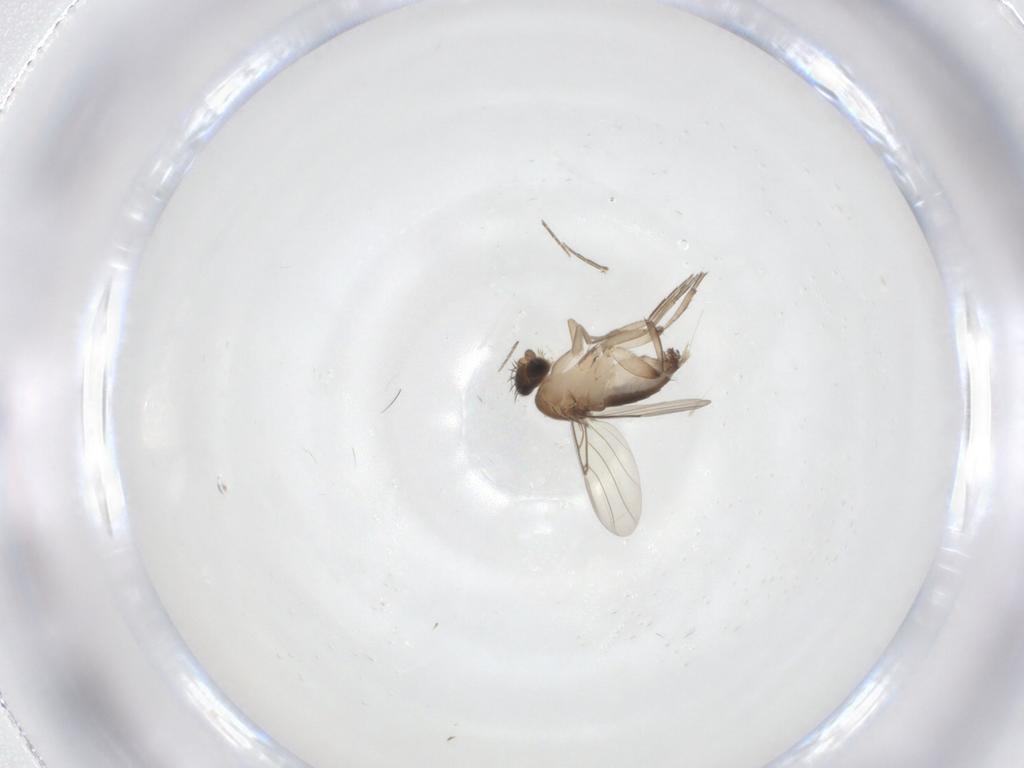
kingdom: Animalia
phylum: Arthropoda
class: Insecta
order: Diptera
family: Phoridae
